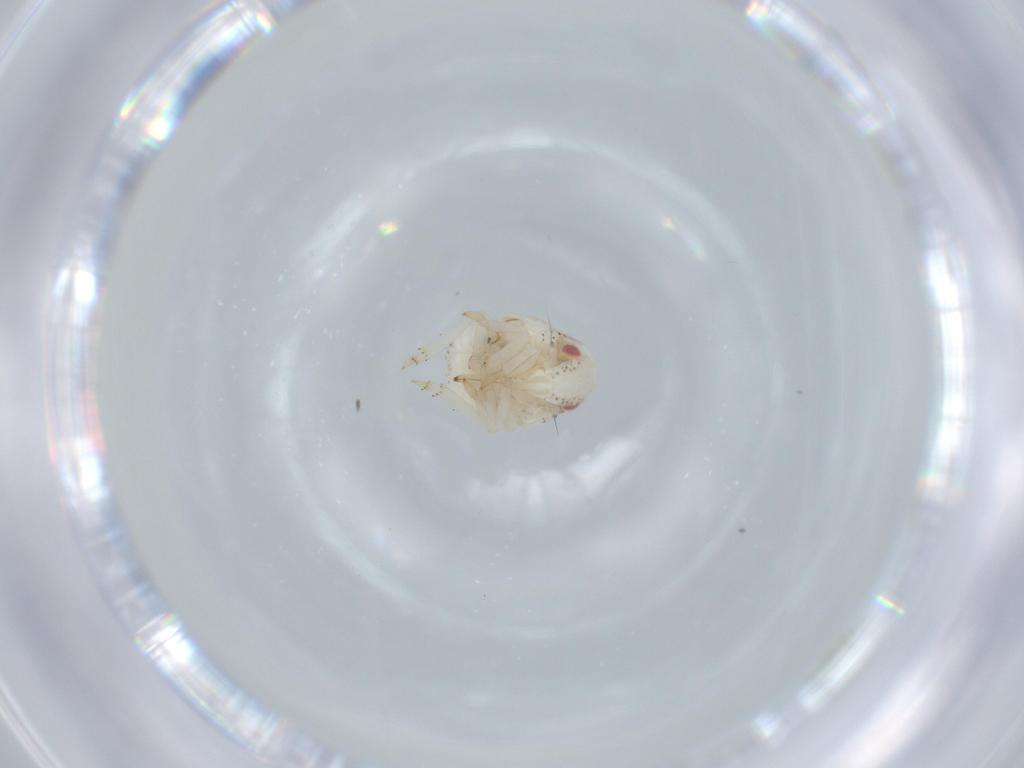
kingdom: Animalia
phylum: Arthropoda
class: Insecta
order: Hemiptera
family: Acanaloniidae
